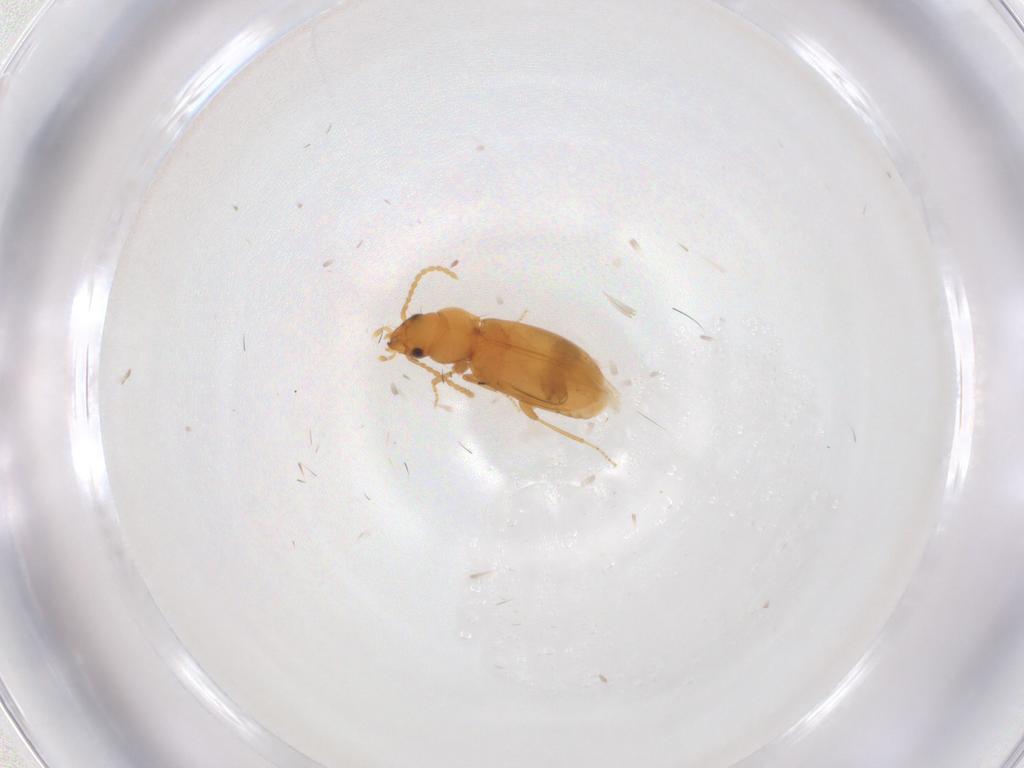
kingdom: Animalia
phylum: Arthropoda
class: Insecta
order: Coleoptera
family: Carabidae
